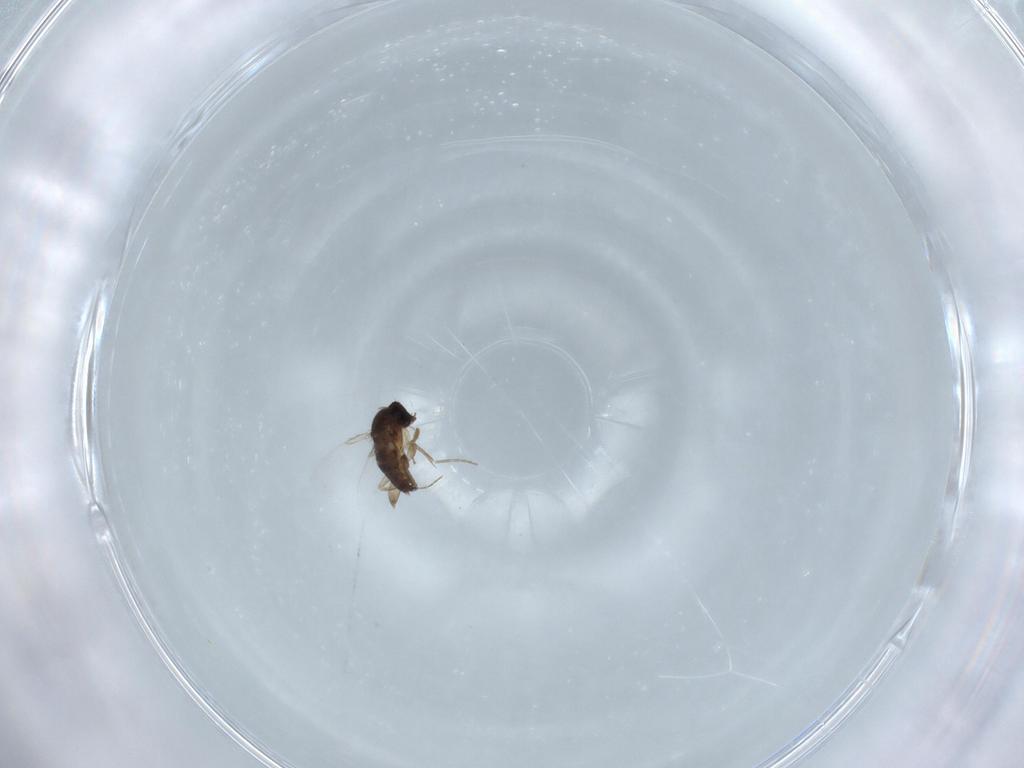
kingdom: Animalia
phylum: Arthropoda
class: Insecta
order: Diptera
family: Phoridae
